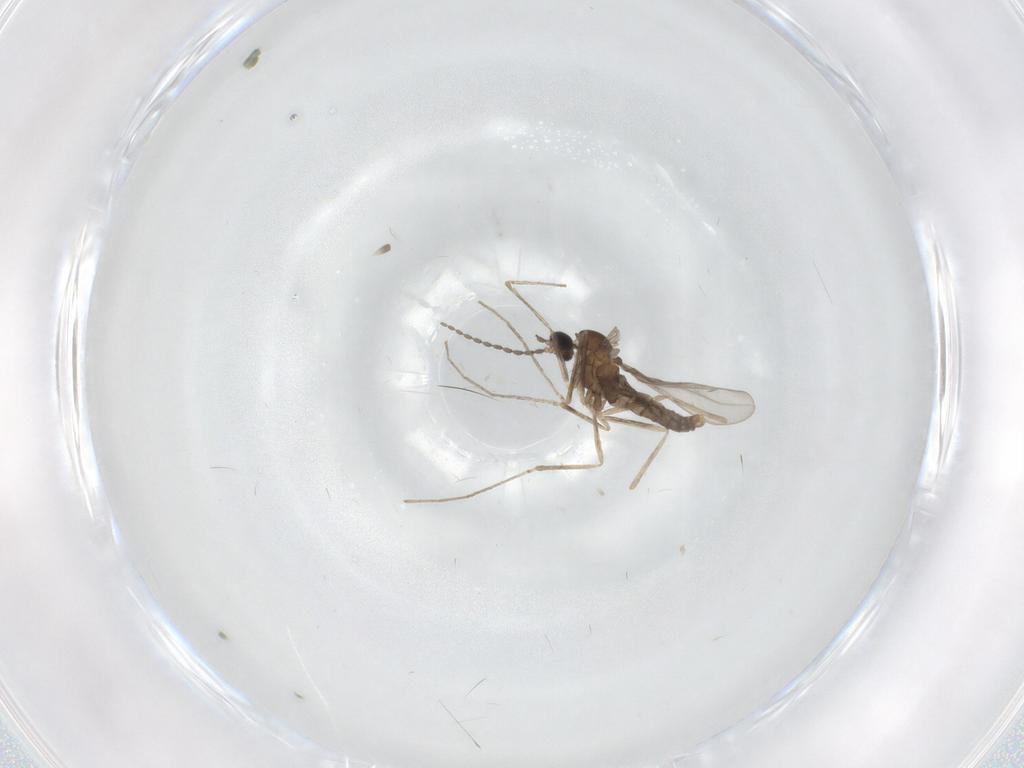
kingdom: Animalia
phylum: Arthropoda
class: Insecta
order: Diptera
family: Cecidomyiidae
